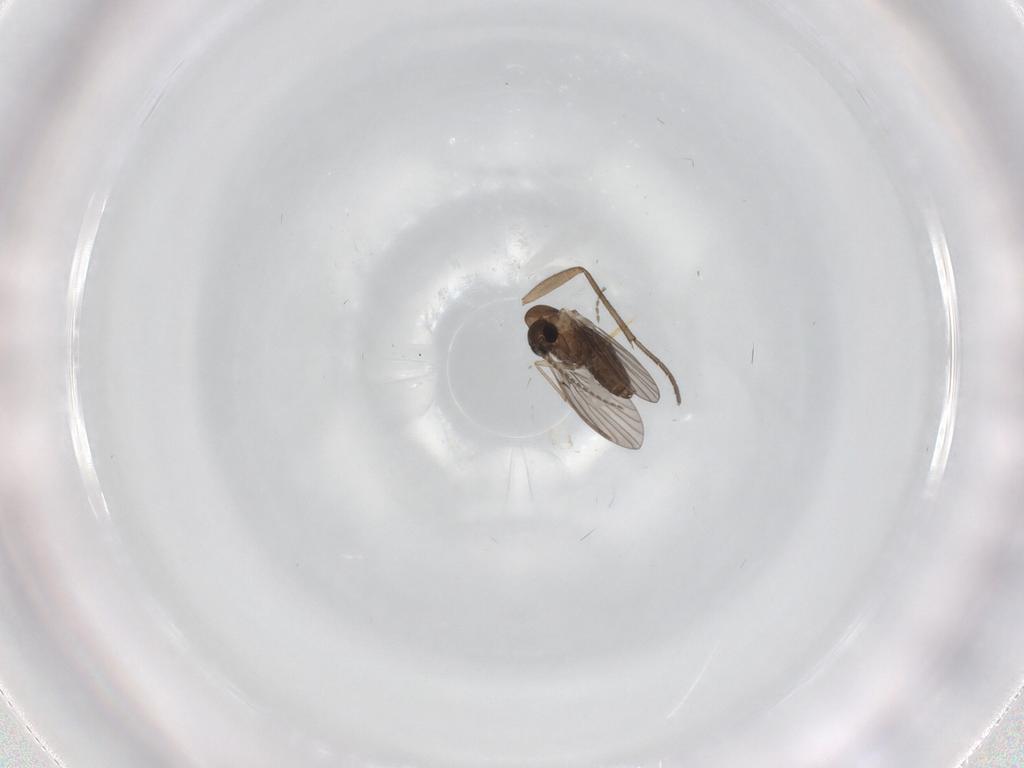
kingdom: Animalia
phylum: Arthropoda
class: Insecta
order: Diptera
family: Sciaridae
